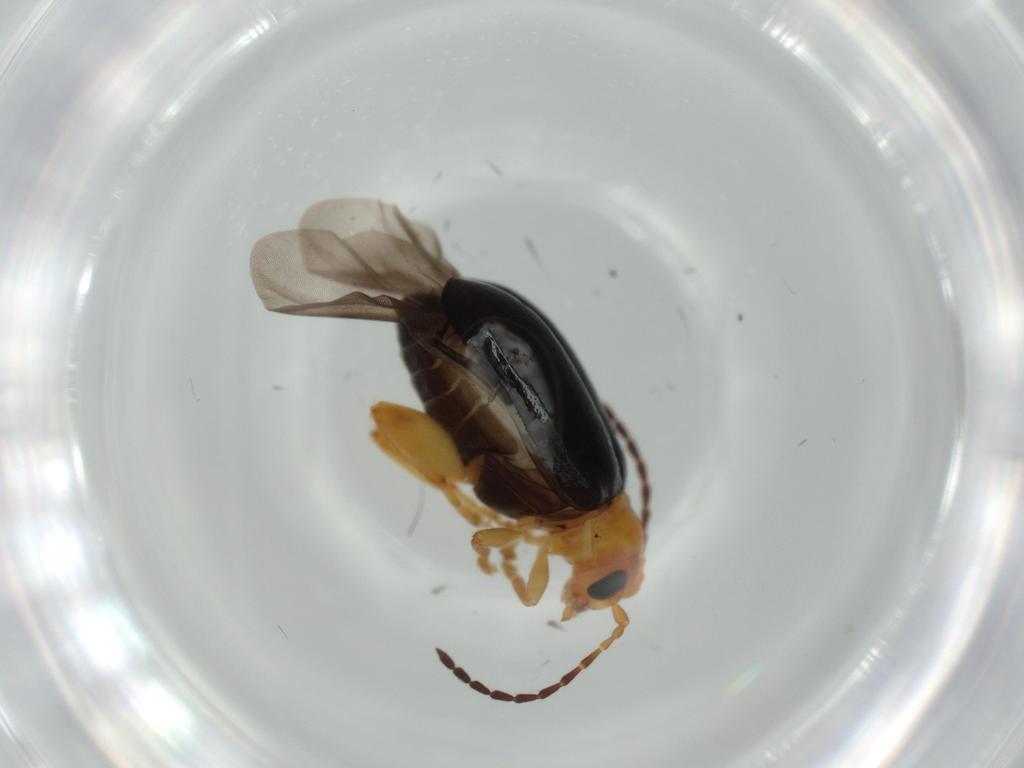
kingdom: Animalia
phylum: Arthropoda
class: Insecta
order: Coleoptera
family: Chrysomelidae
